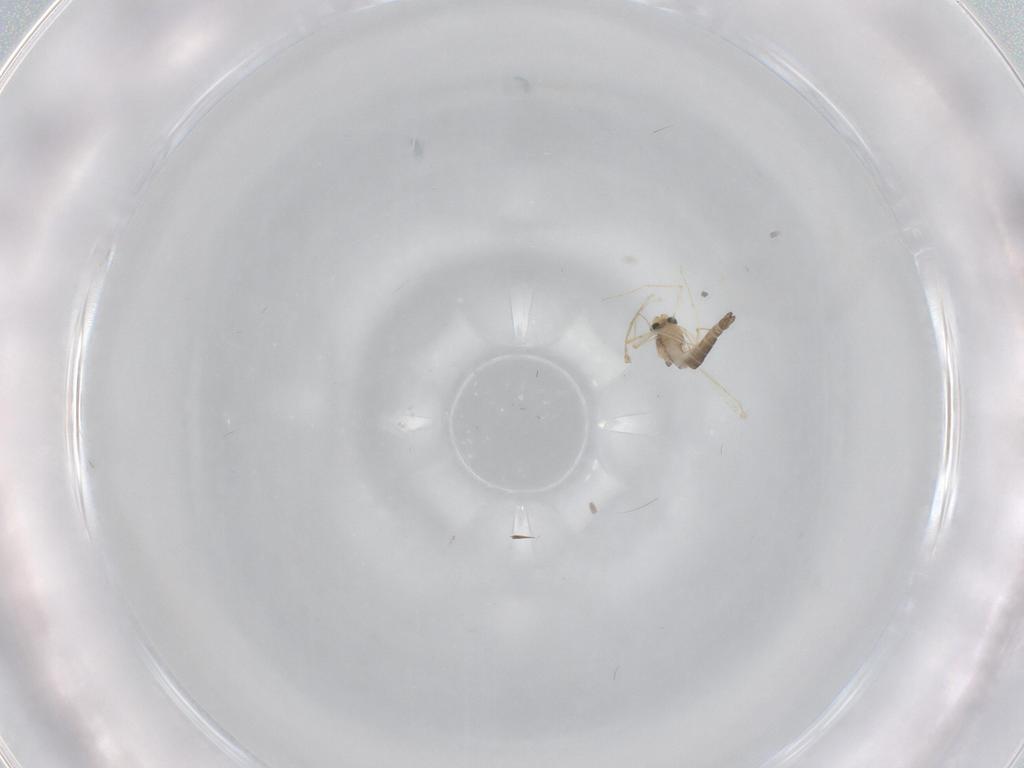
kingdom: Animalia
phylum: Arthropoda
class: Insecta
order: Diptera
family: Chironomidae
